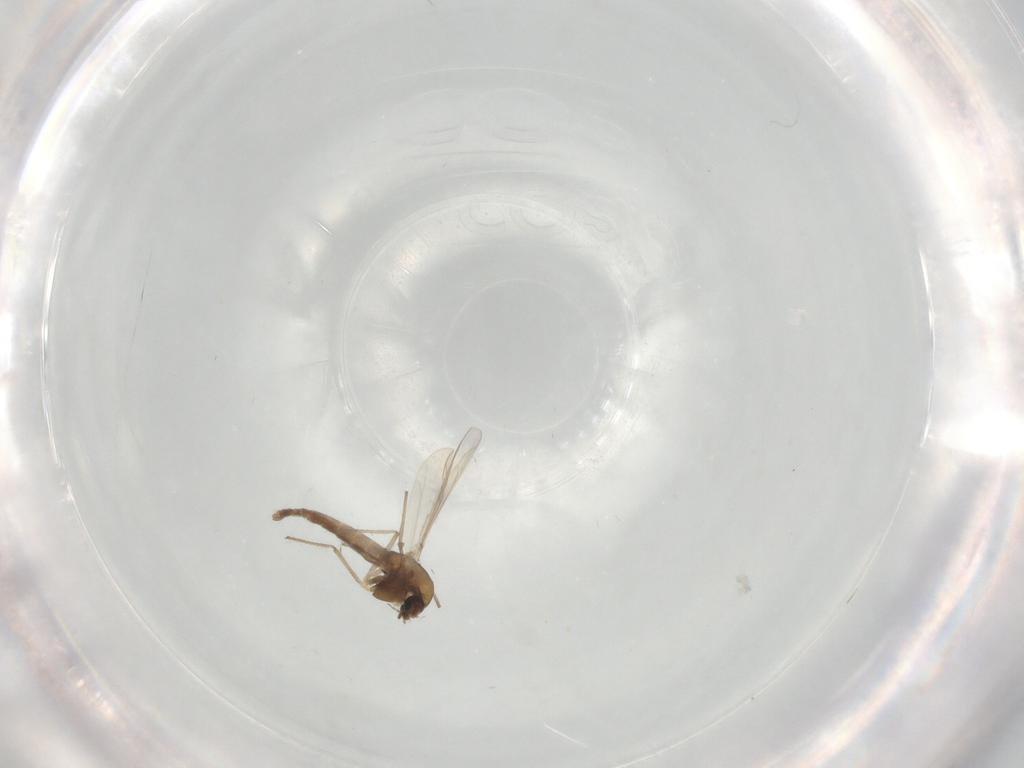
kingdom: Animalia
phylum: Arthropoda
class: Insecta
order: Diptera
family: Chironomidae
